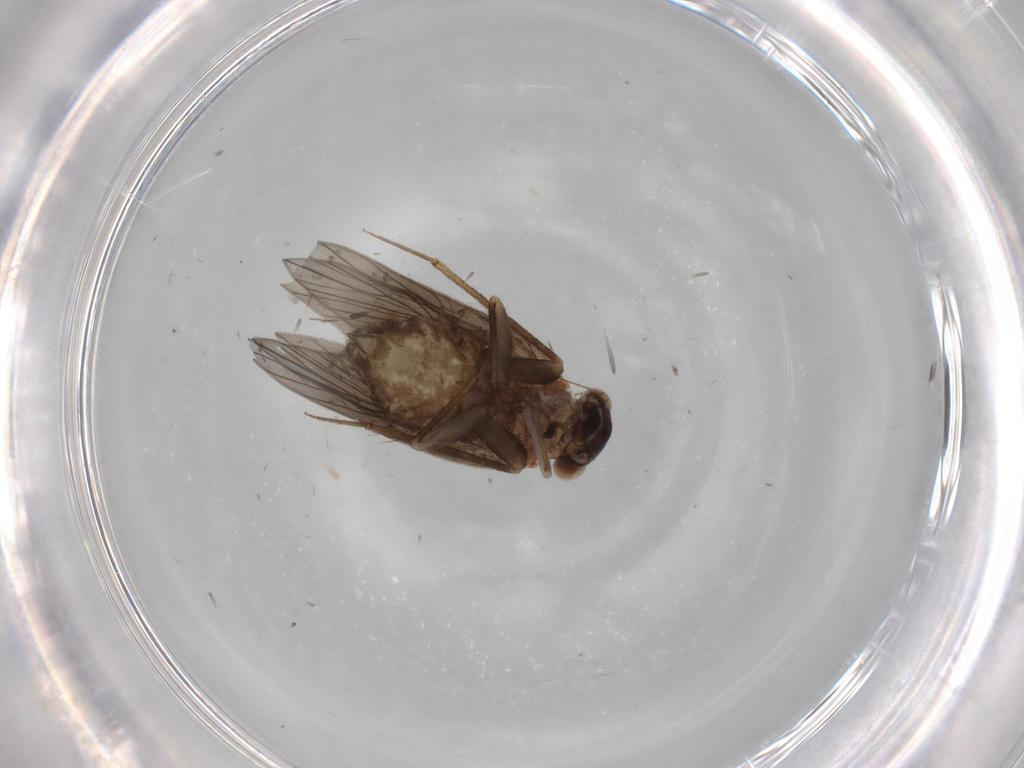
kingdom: Animalia
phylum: Arthropoda
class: Insecta
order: Psocodea
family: Lepidopsocidae
